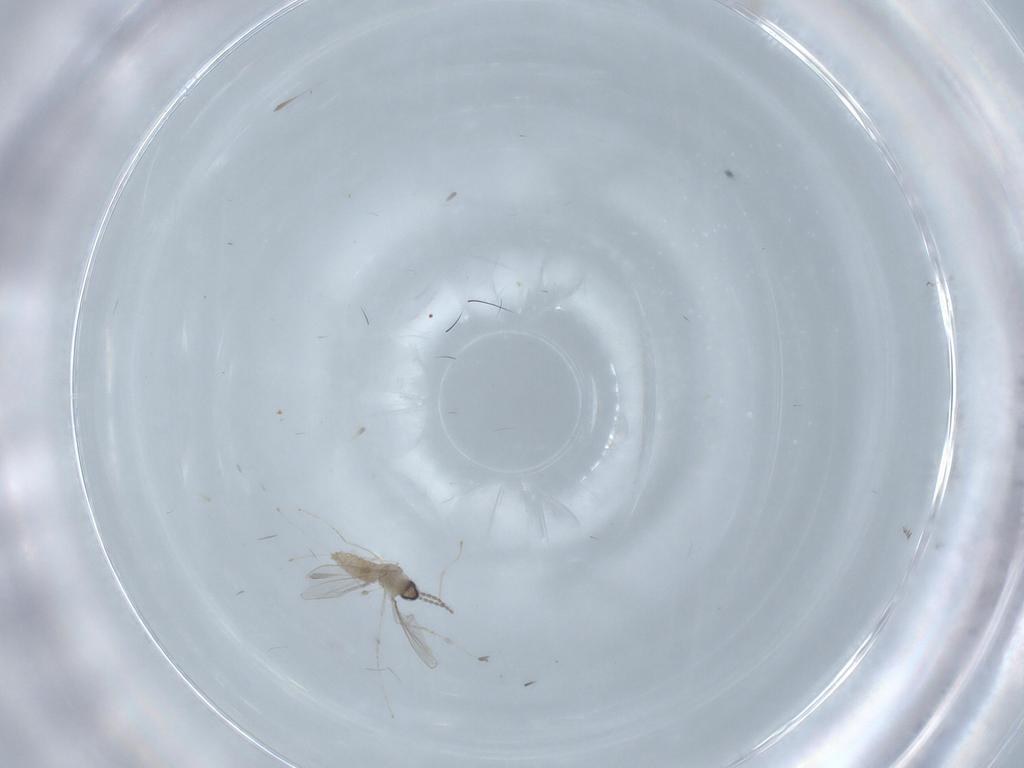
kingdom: Animalia
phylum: Arthropoda
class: Insecta
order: Diptera
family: Cecidomyiidae
